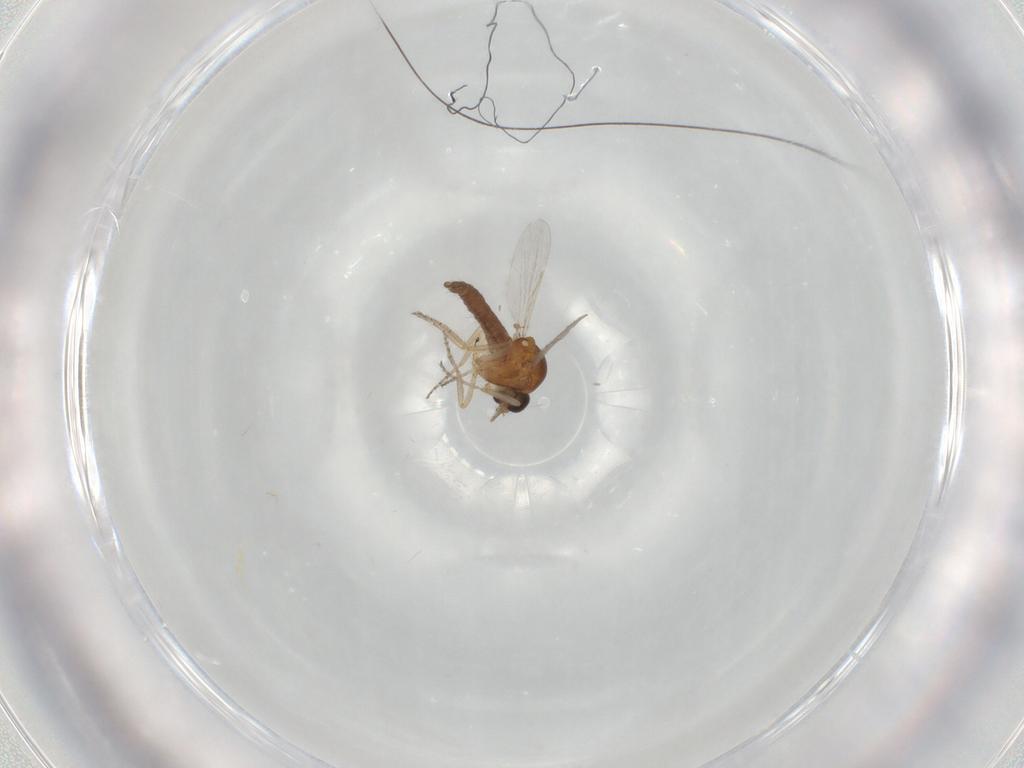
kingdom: Animalia
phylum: Arthropoda
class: Insecta
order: Diptera
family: Ceratopogonidae
